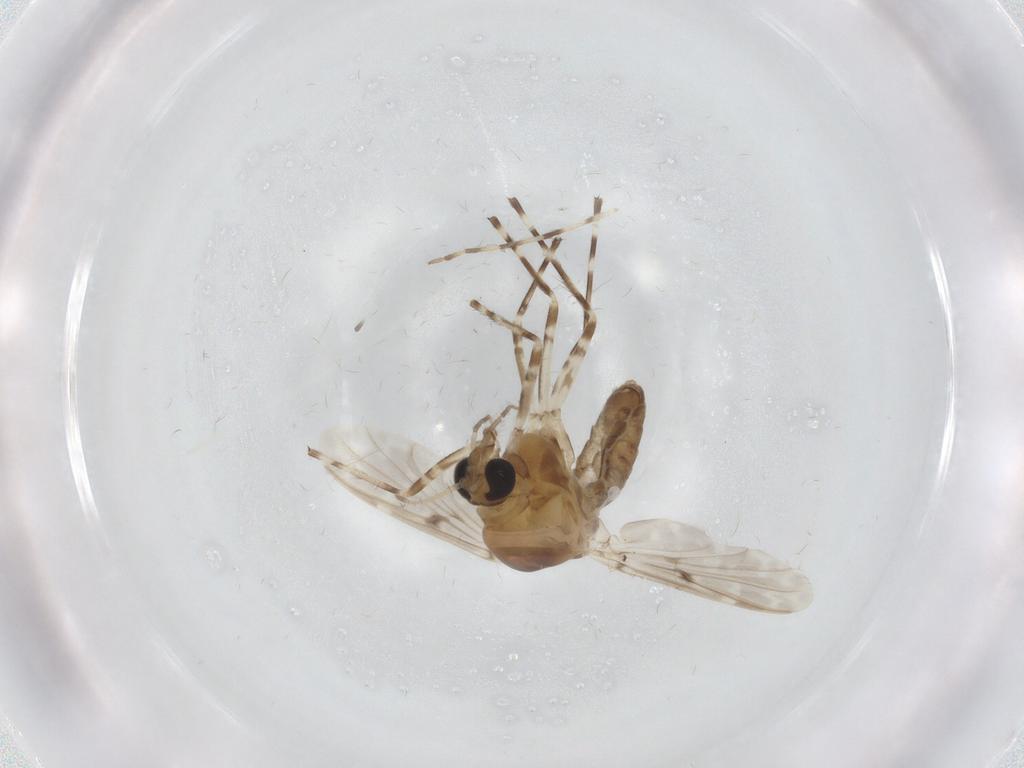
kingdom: Animalia
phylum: Arthropoda
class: Insecta
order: Diptera
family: Chironomidae
